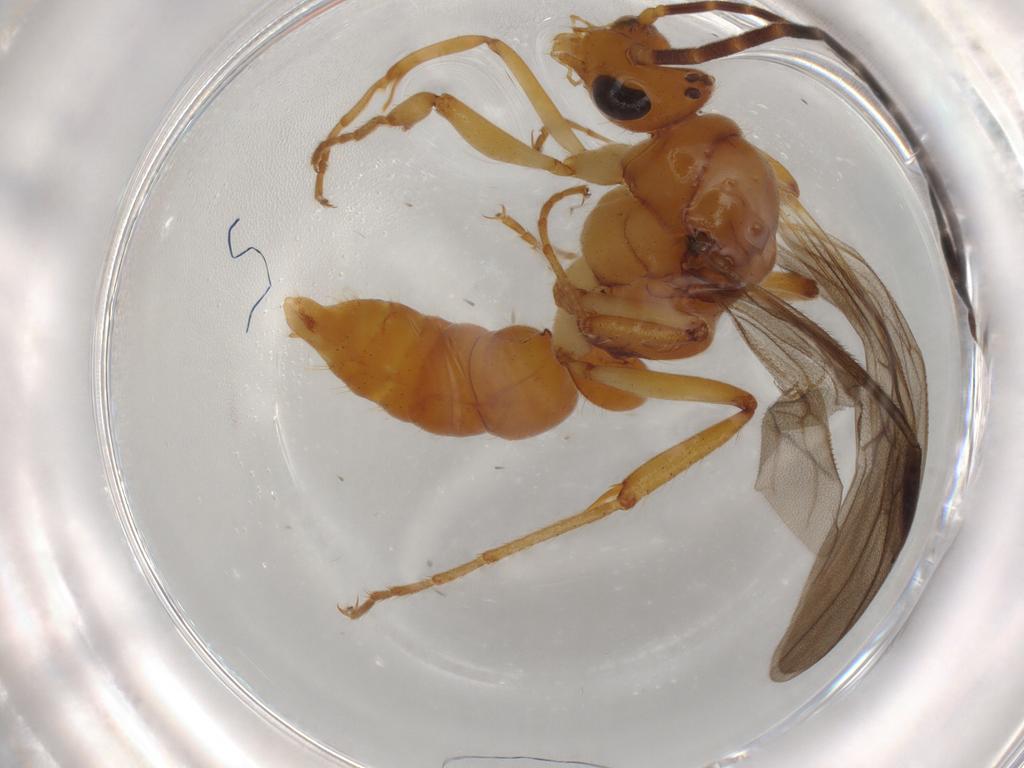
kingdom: Animalia
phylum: Arthropoda
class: Insecta
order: Hymenoptera
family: Formicidae
